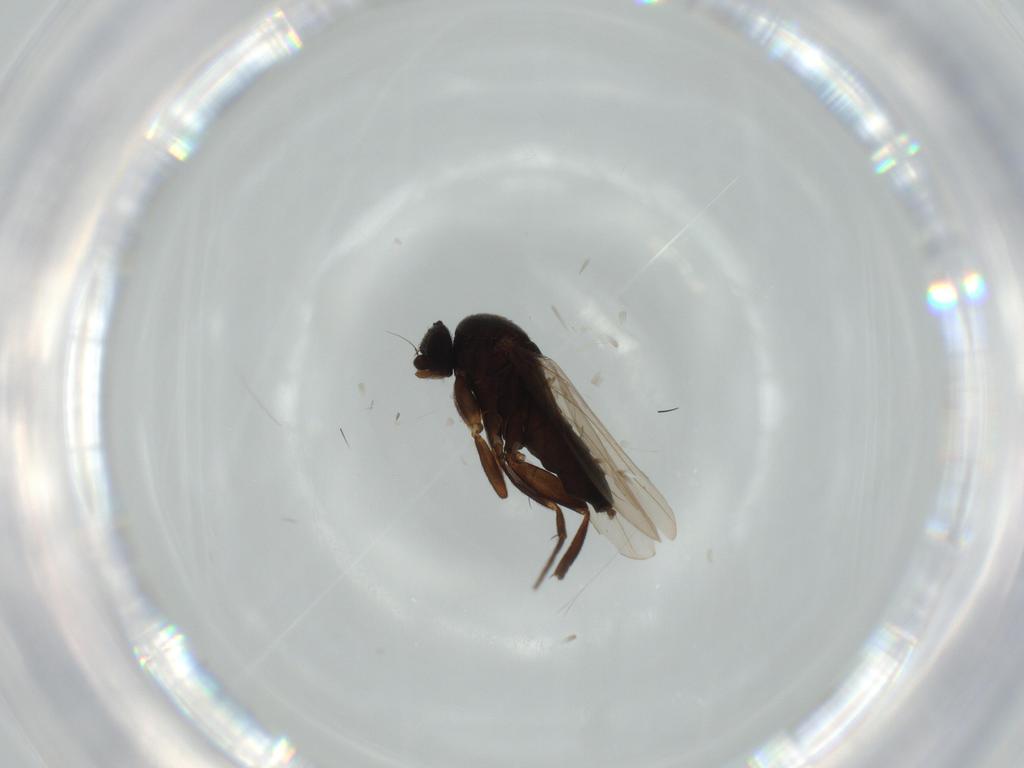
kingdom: Animalia
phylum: Arthropoda
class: Insecta
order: Diptera
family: Phoridae
